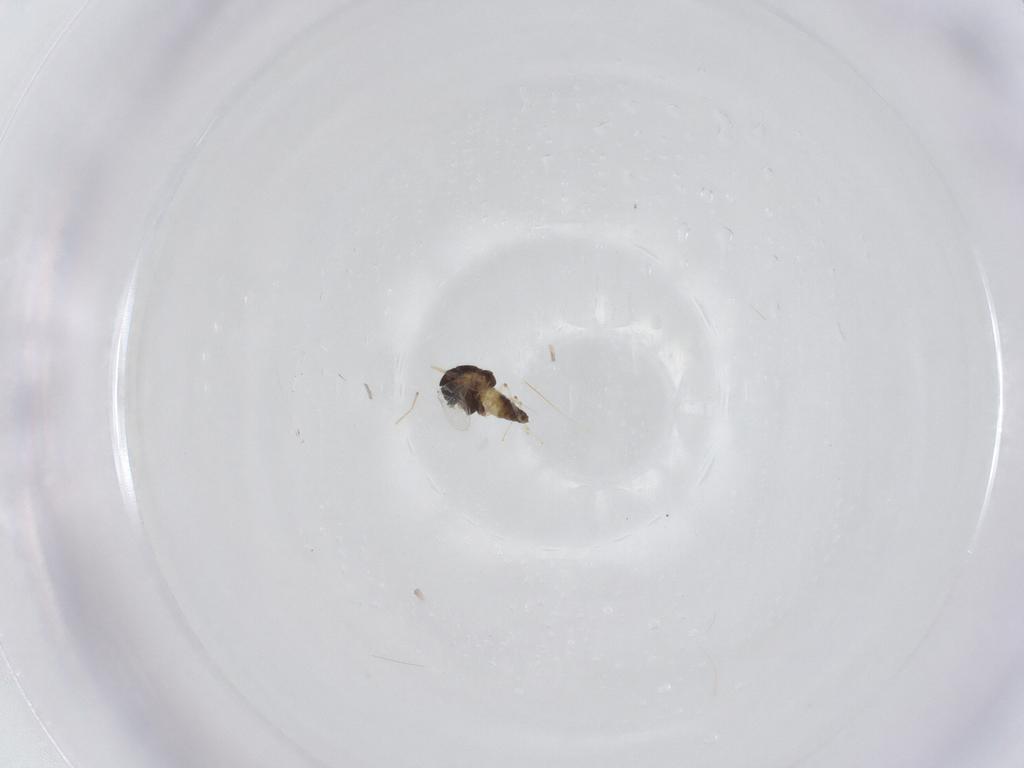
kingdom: Animalia
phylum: Arthropoda
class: Insecta
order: Diptera
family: Chironomidae
